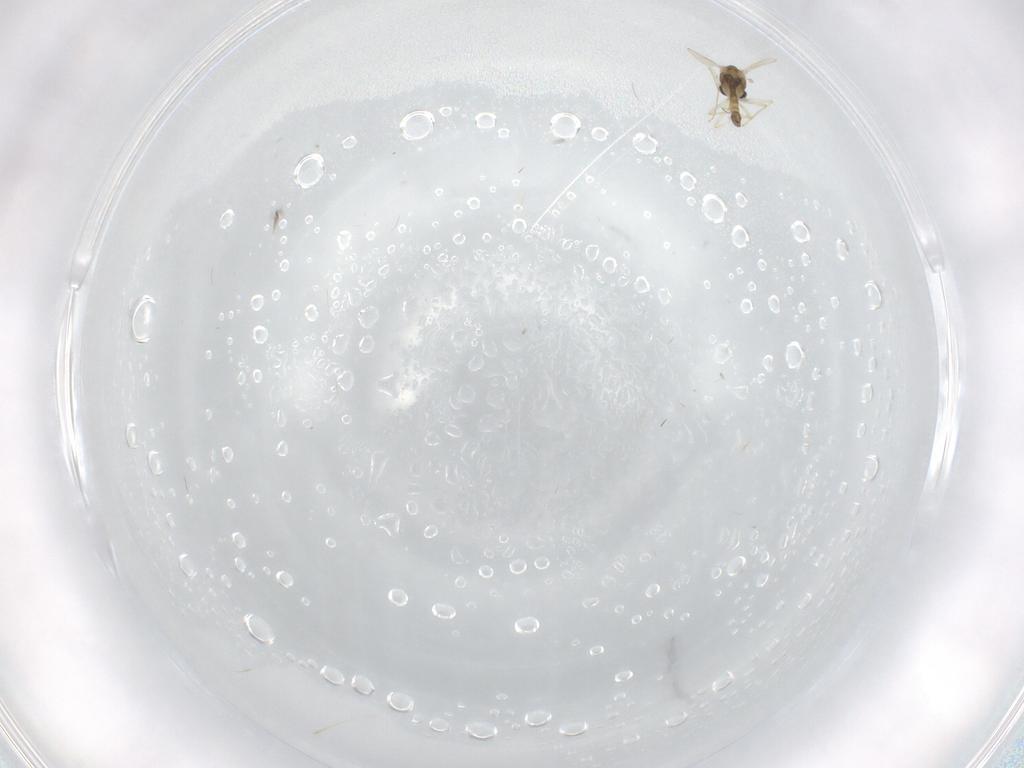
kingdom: Animalia
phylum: Arthropoda
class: Insecta
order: Diptera
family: Chironomidae
